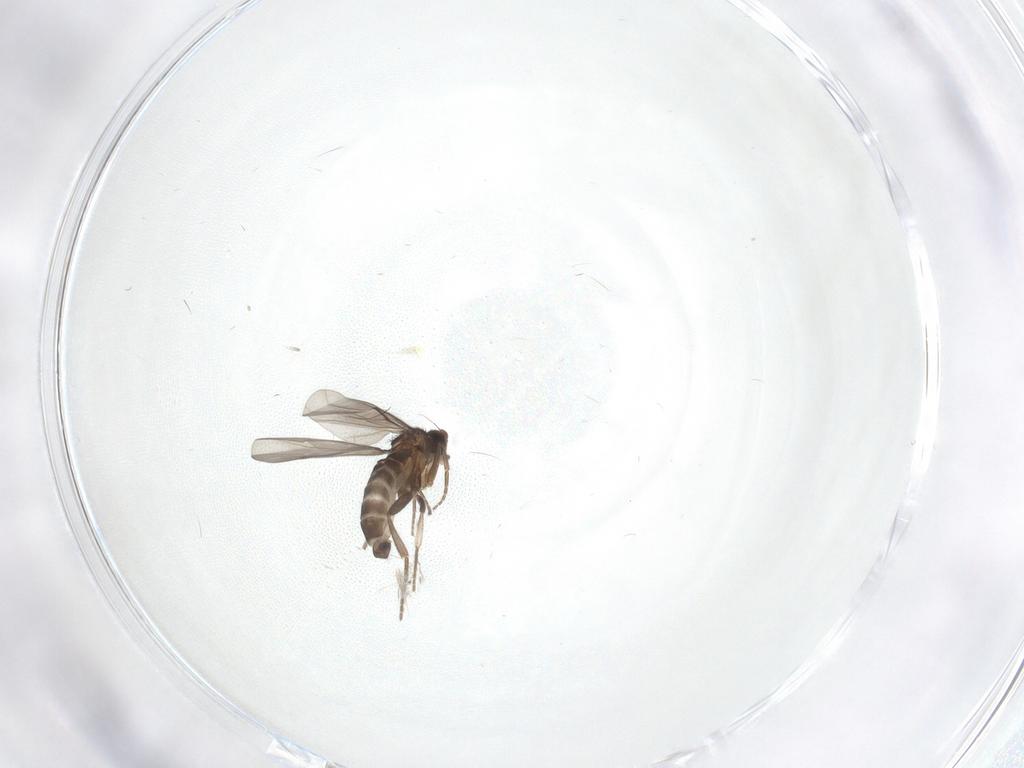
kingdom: Animalia
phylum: Arthropoda
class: Insecta
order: Diptera
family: Phoridae
